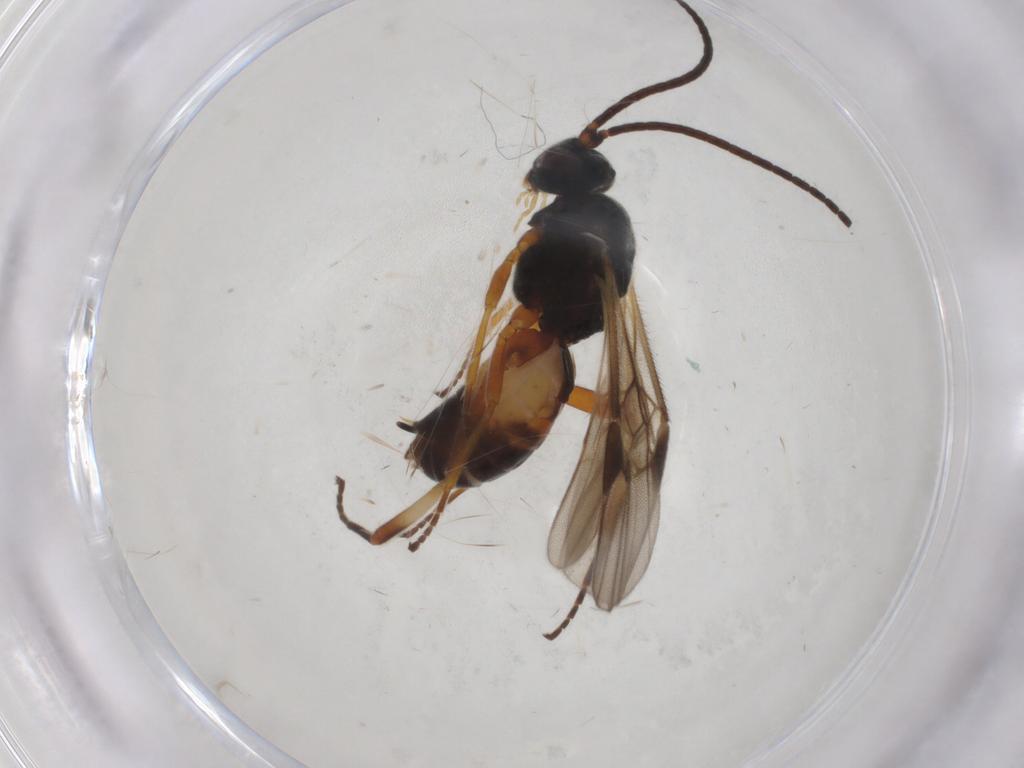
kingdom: Animalia
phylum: Arthropoda
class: Insecta
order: Hymenoptera
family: Braconidae
